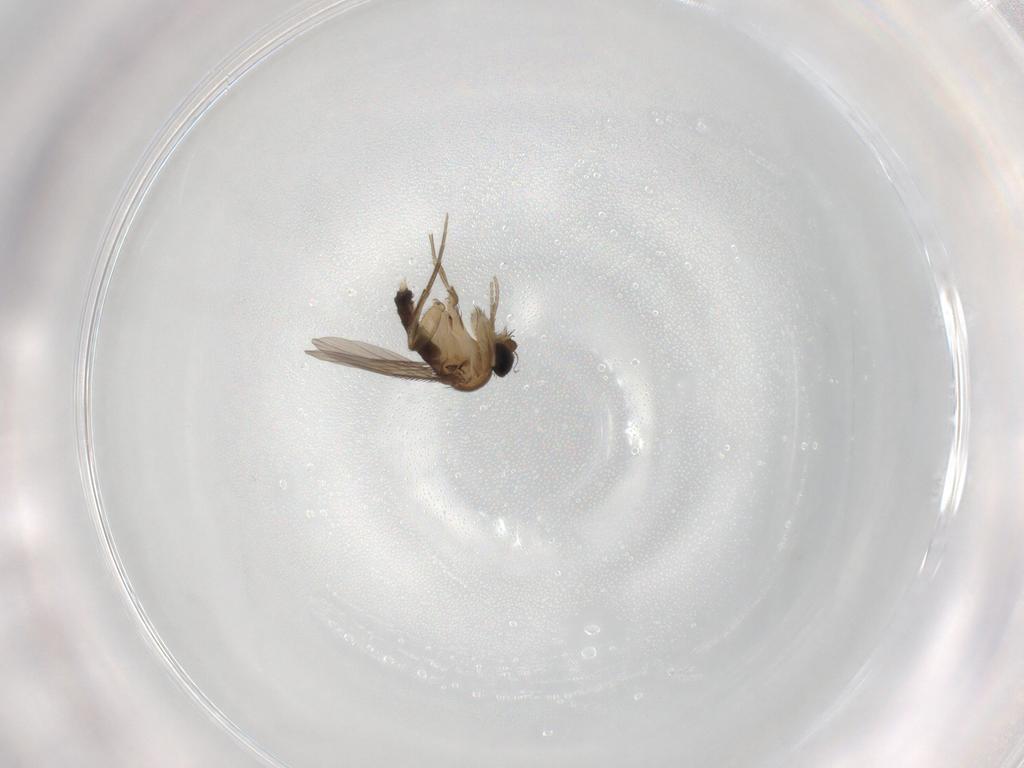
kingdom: Animalia
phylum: Arthropoda
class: Insecta
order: Diptera
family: Phoridae
